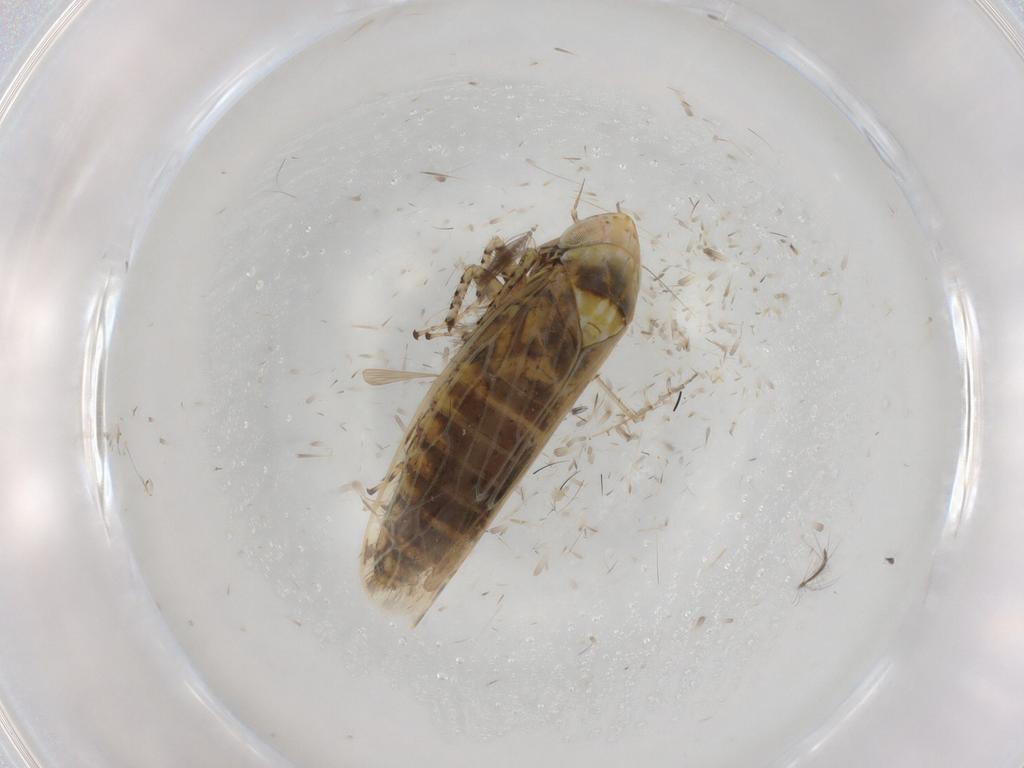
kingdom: Animalia
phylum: Arthropoda
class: Insecta
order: Hemiptera
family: Cicadellidae
